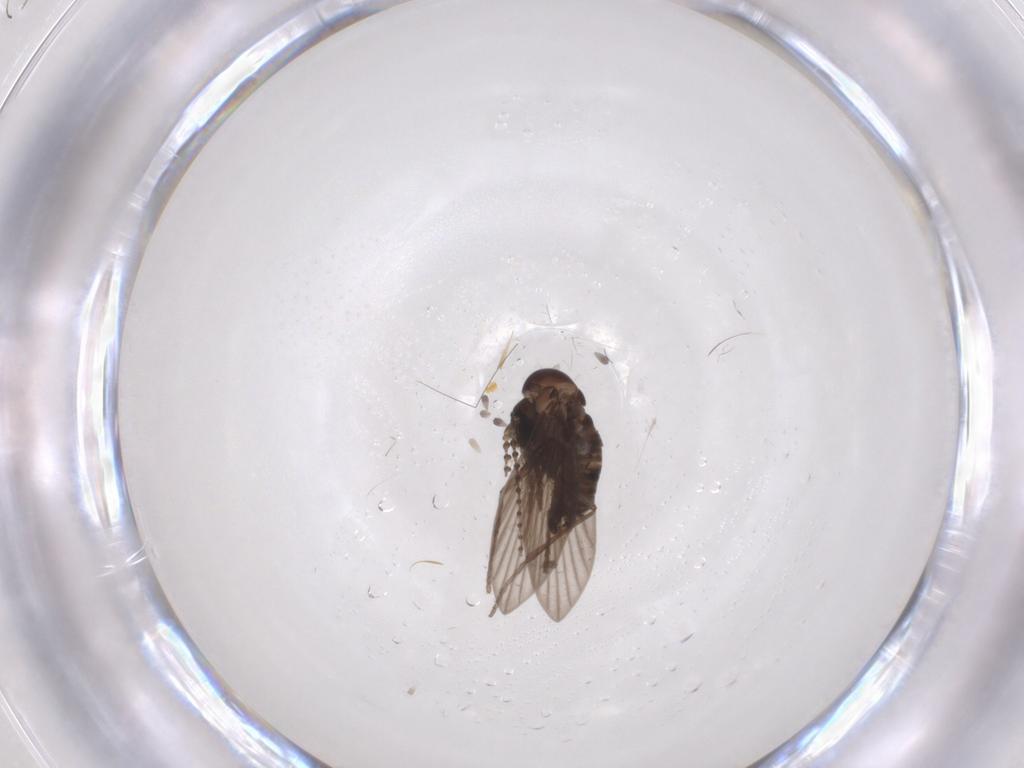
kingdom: Animalia
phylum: Arthropoda
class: Insecta
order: Diptera
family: Psychodidae
